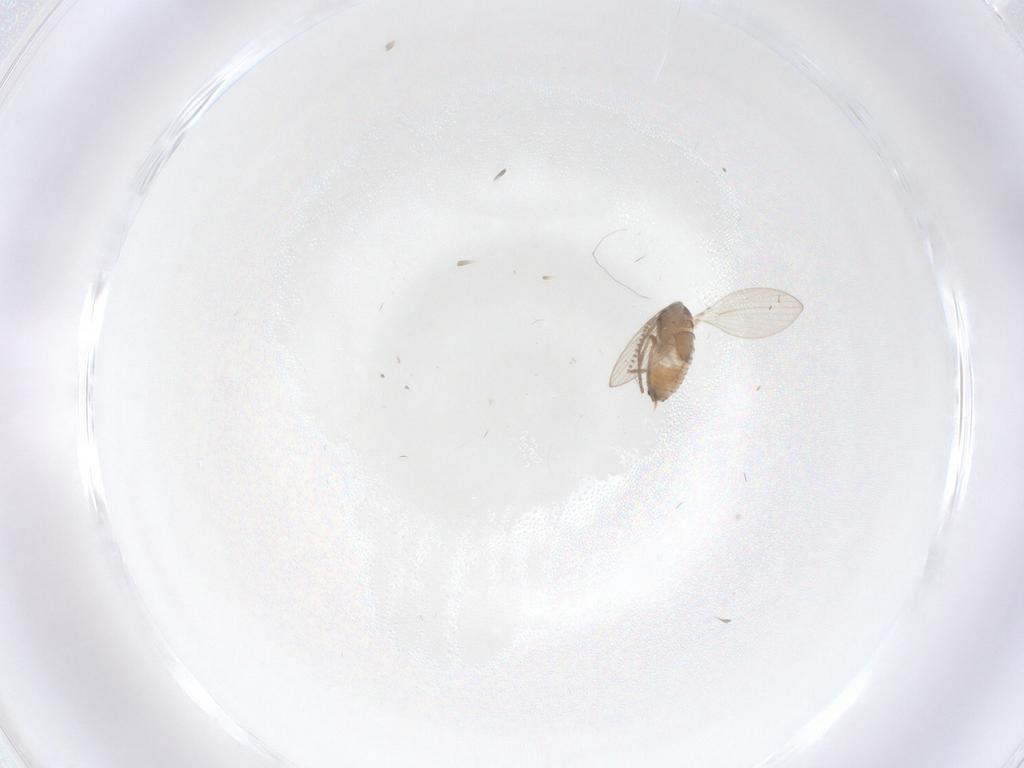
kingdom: Animalia
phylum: Arthropoda
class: Insecta
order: Diptera
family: Psychodidae
